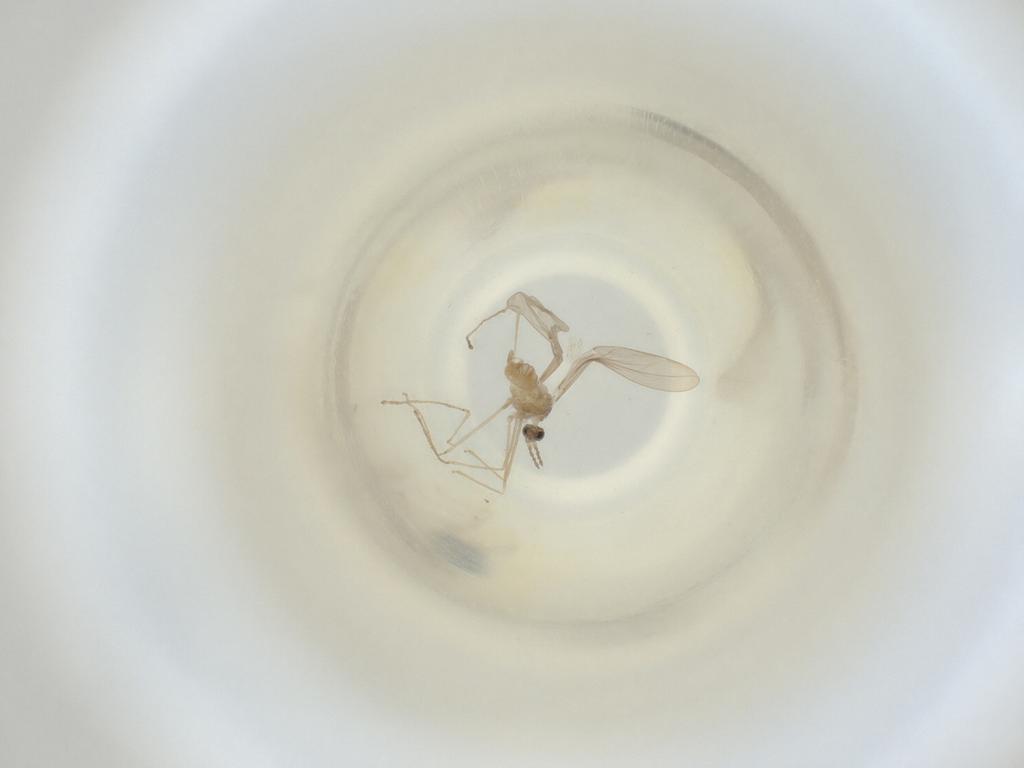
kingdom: Animalia
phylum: Arthropoda
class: Insecta
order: Diptera
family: Cecidomyiidae
